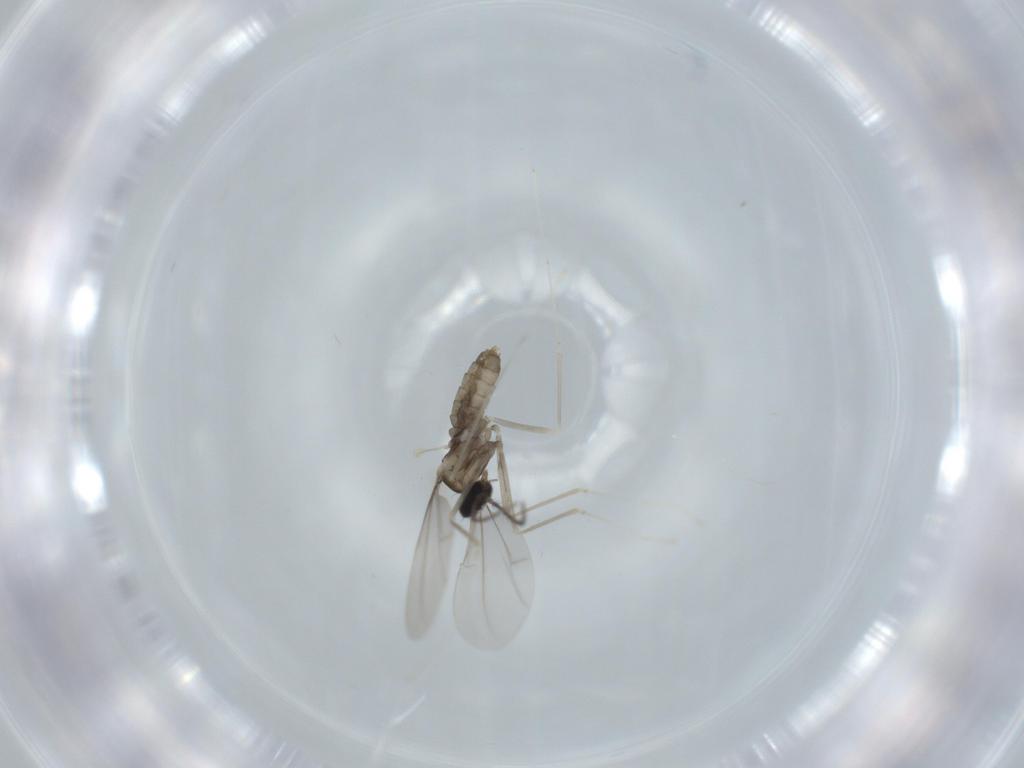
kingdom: Animalia
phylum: Arthropoda
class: Insecta
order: Diptera
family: Cecidomyiidae
